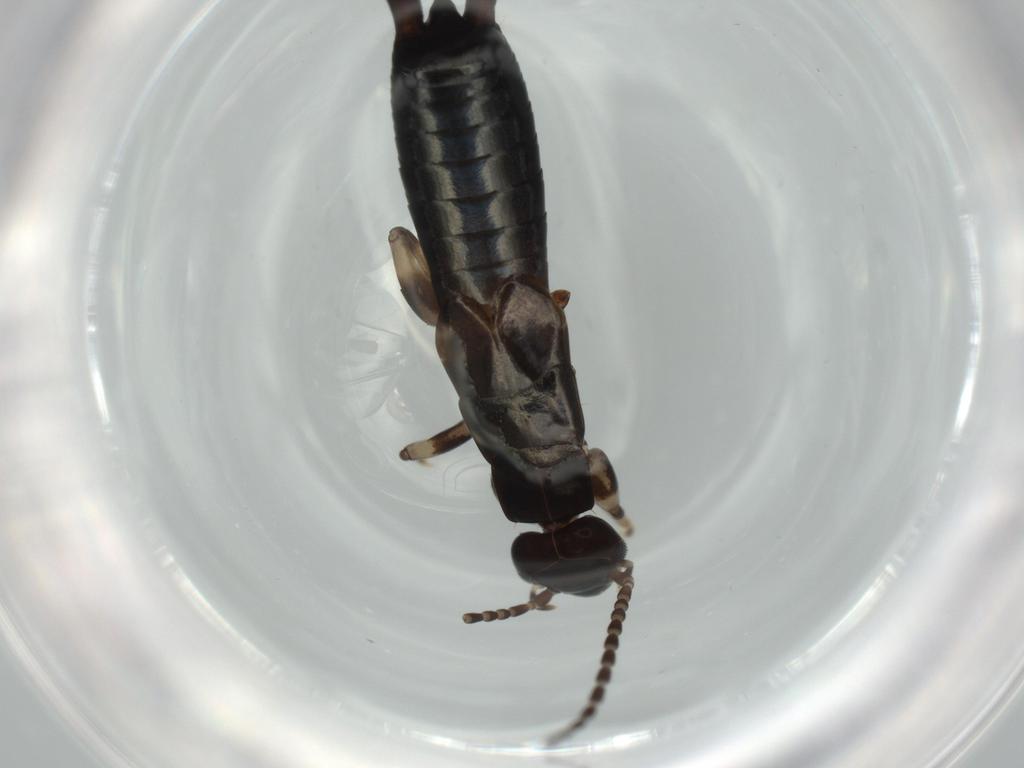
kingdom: Animalia
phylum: Arthropoda
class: Insecta
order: Dermaptera
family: Labiduridae
